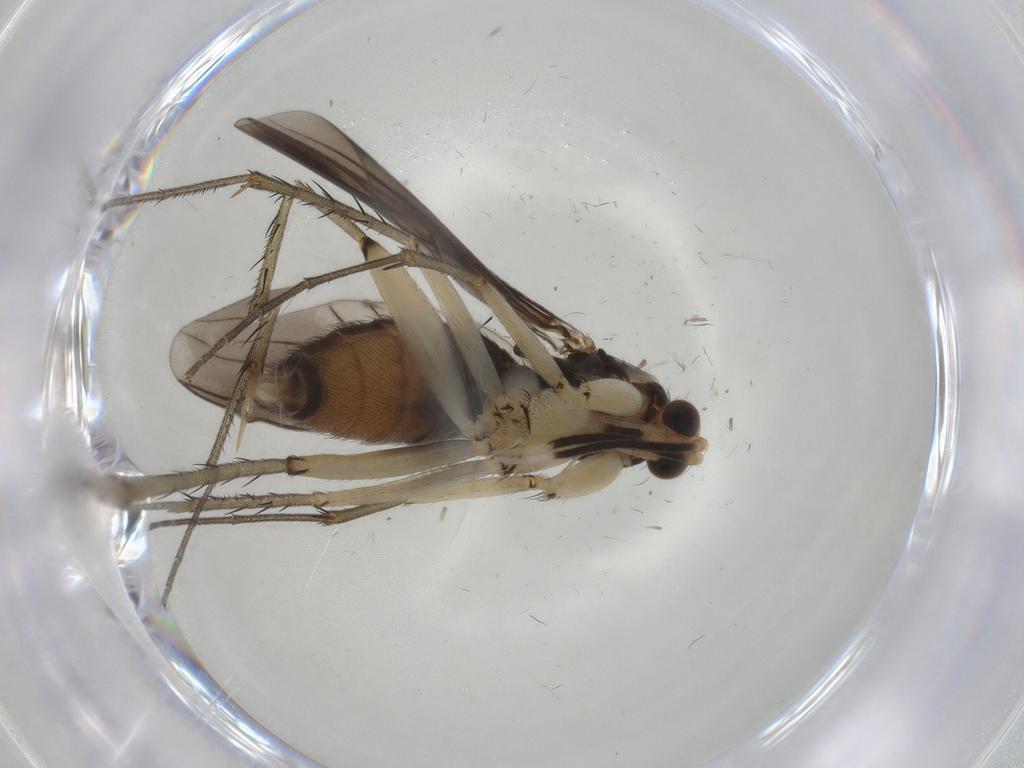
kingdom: Animalia
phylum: Arthropoda
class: Insecta
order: Diptera
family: Mycetophilidae
